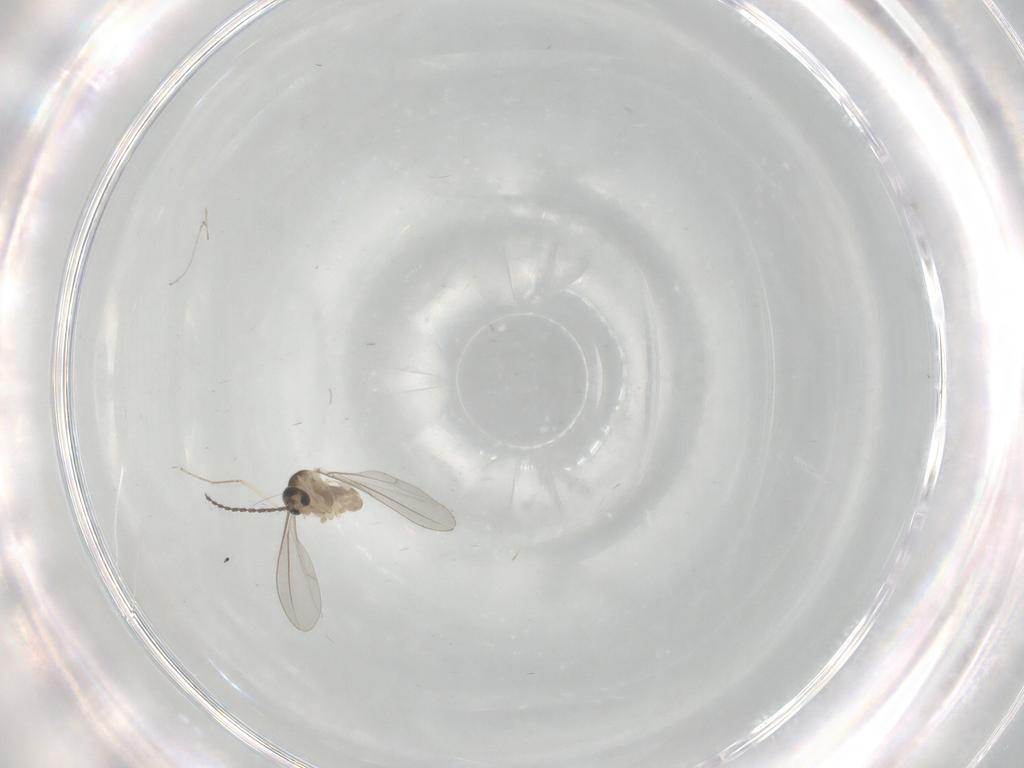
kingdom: Animalia
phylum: Arthropoda
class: Insecta
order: Diptera
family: Cecidomyiidae
